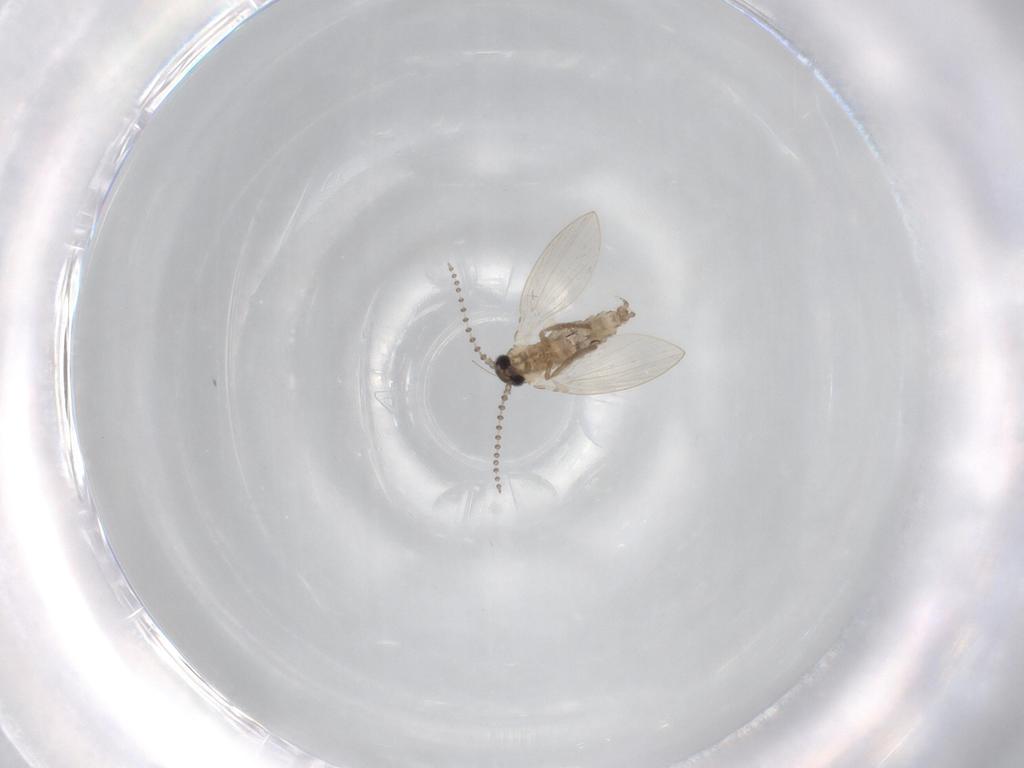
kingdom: Animalia
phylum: Arthropoda
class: Insecta
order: Diptera
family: Psychodidae
